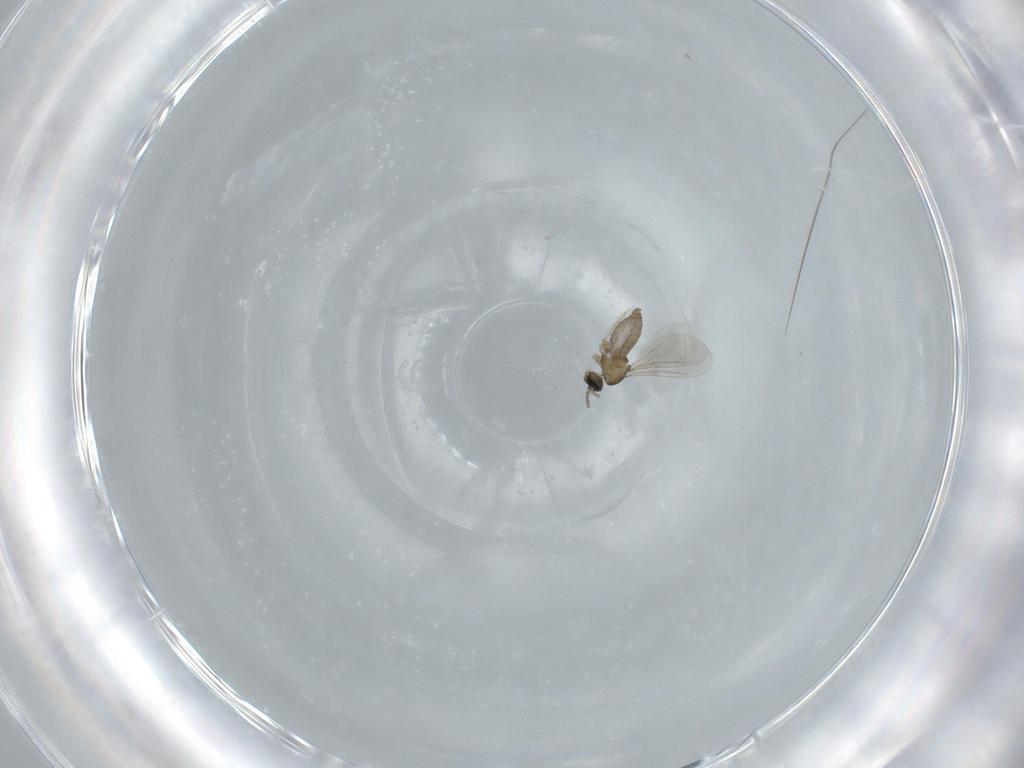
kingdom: Animalia
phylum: Arthropoda
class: Insecta
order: Diptera
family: Cecidomyiidae
